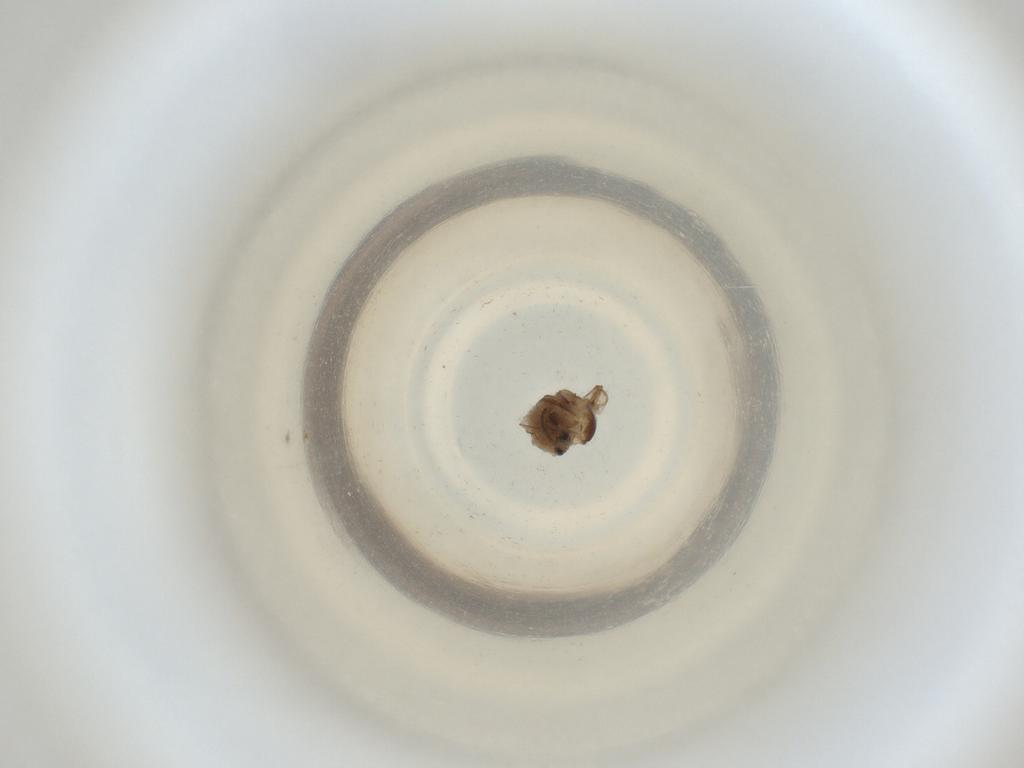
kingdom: Animalia
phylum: Arthropoda
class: Insecta
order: Diptera
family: Cecidomyiidae
